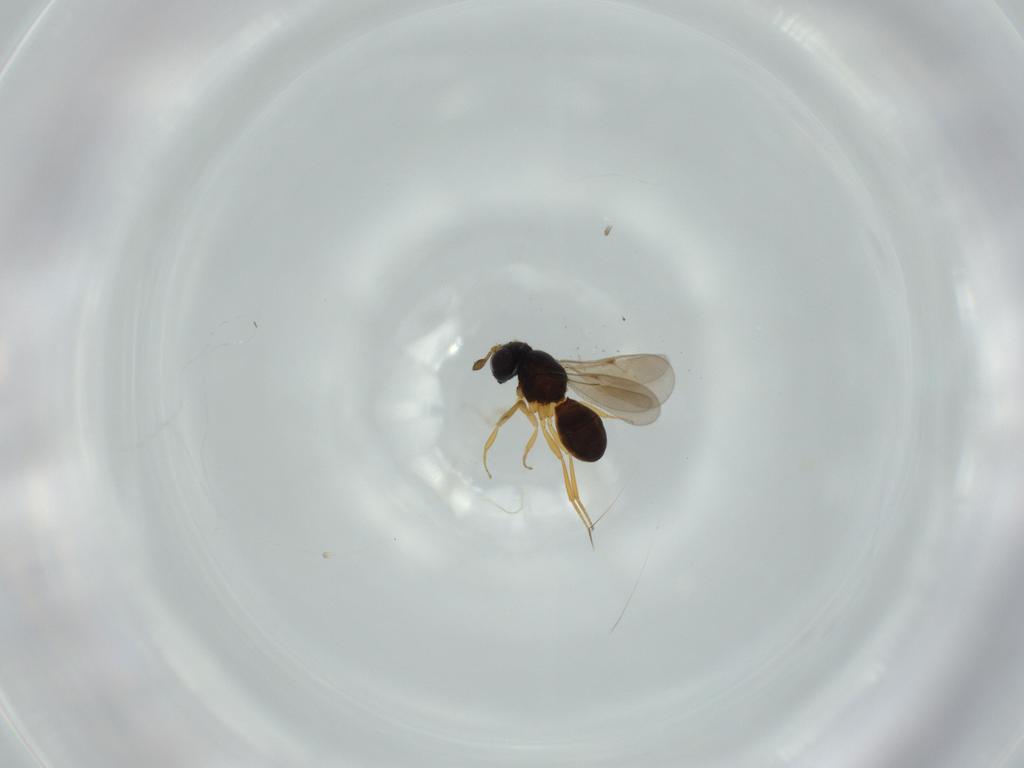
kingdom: Animalia
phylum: Arthropoda
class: Insecta
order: Hymenoptera
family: Scelionidae
